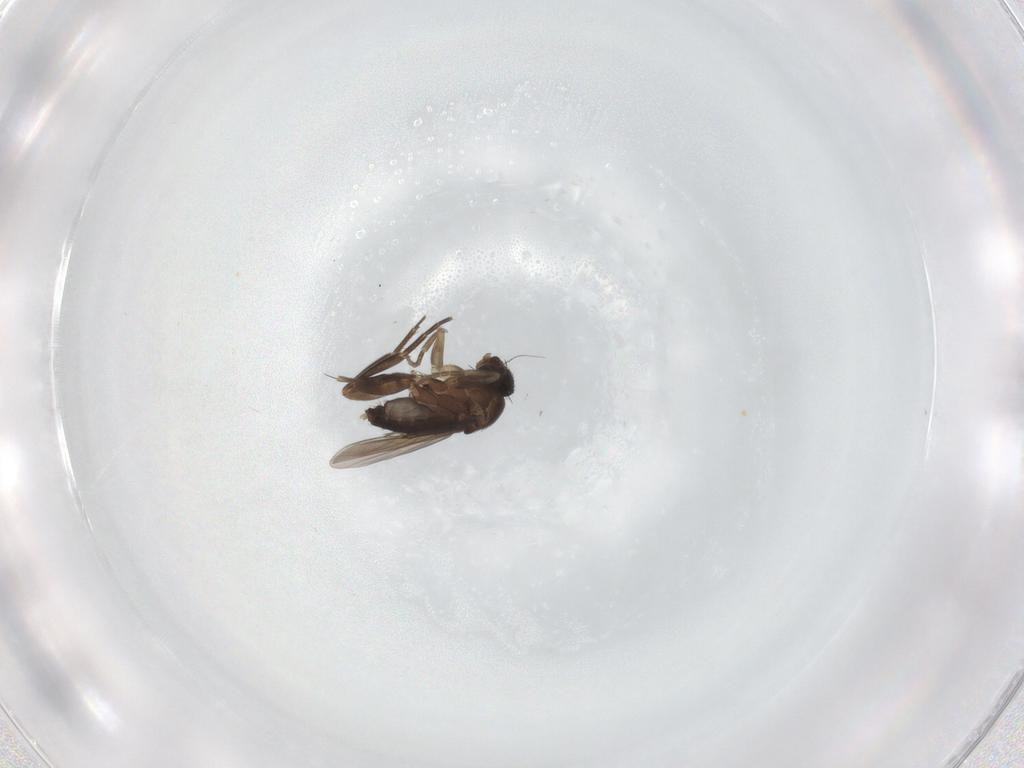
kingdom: Animalia
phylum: Arthropoda
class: Insecta
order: Diptera
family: Phoridae
